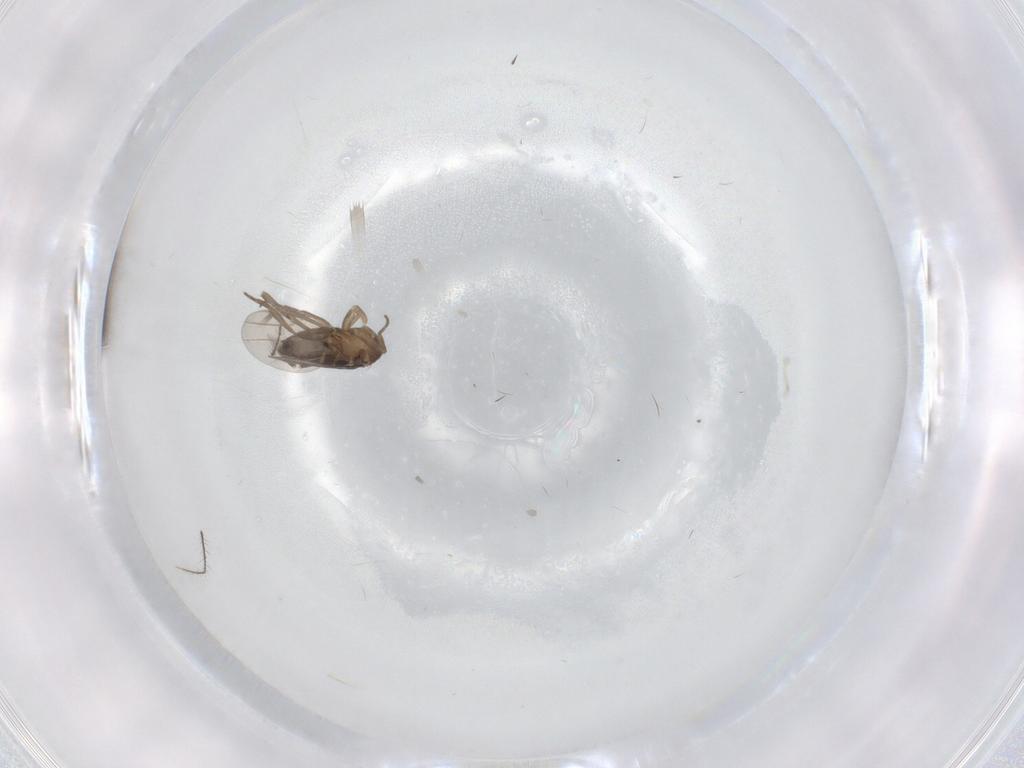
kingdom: Animalia
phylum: Arthropoda
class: Insecta
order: Diptera
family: Phoridae
